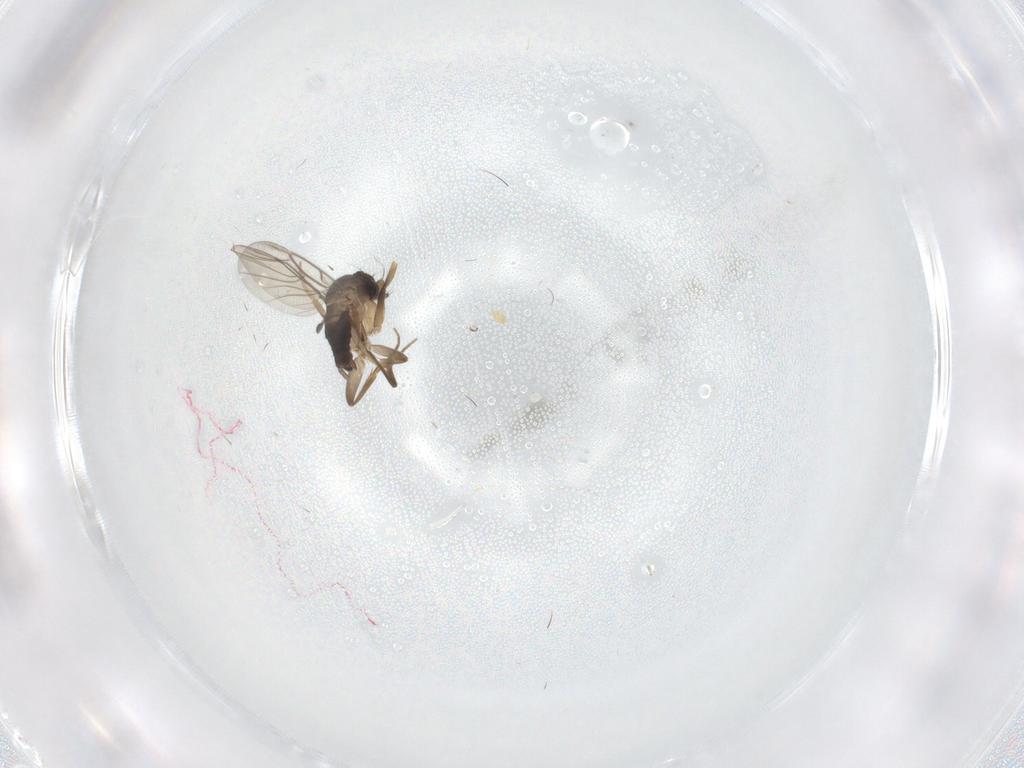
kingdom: Animalia
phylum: Arthropoda
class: Insecta
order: Diptera
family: Phoridae
